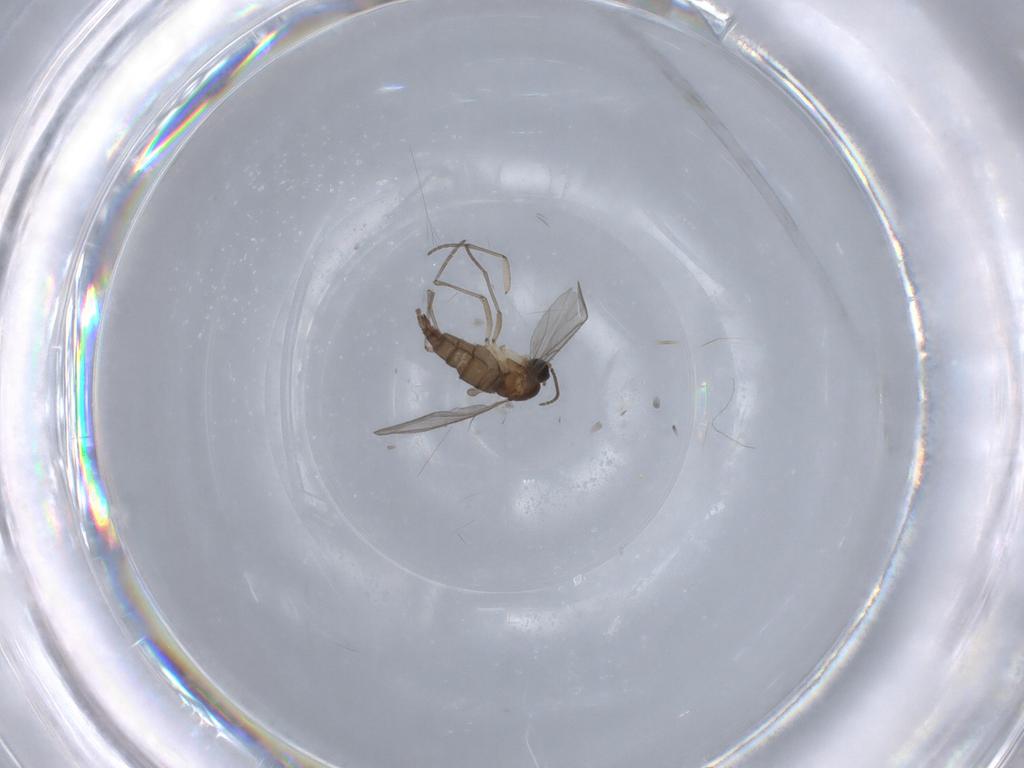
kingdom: Animalia
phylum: Arthropoda
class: Insecta
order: Diptera
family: Sciaridae
